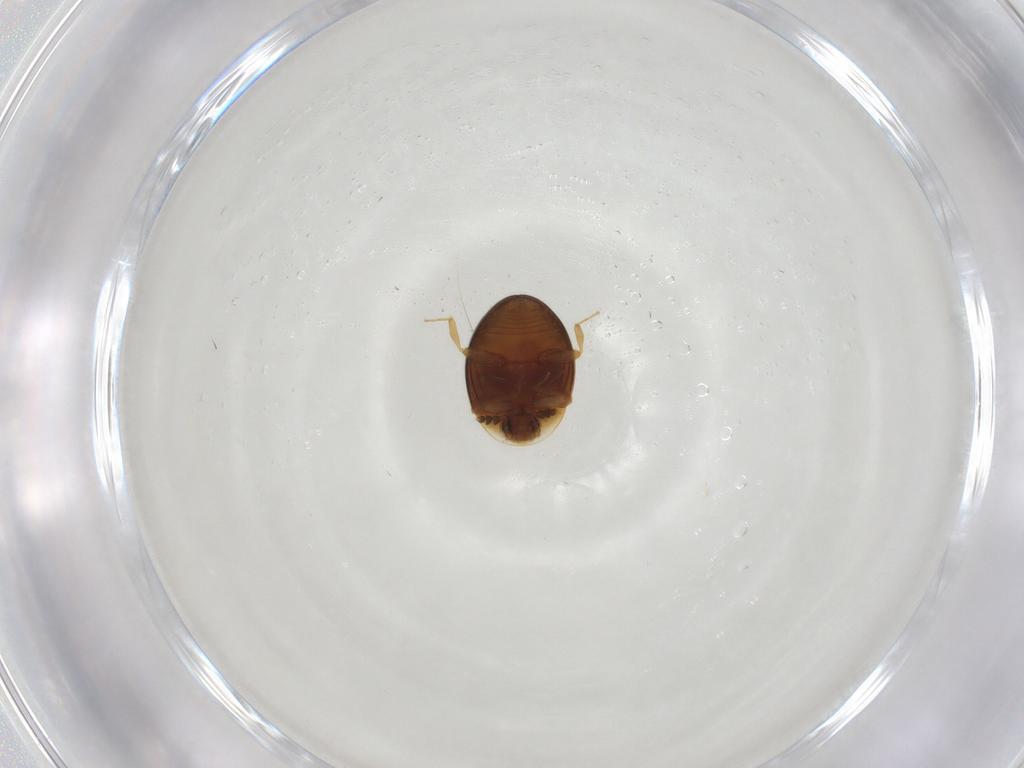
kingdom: Animalia
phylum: Arthropoda
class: Insecta
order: Coleoptera
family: Corylophidae
